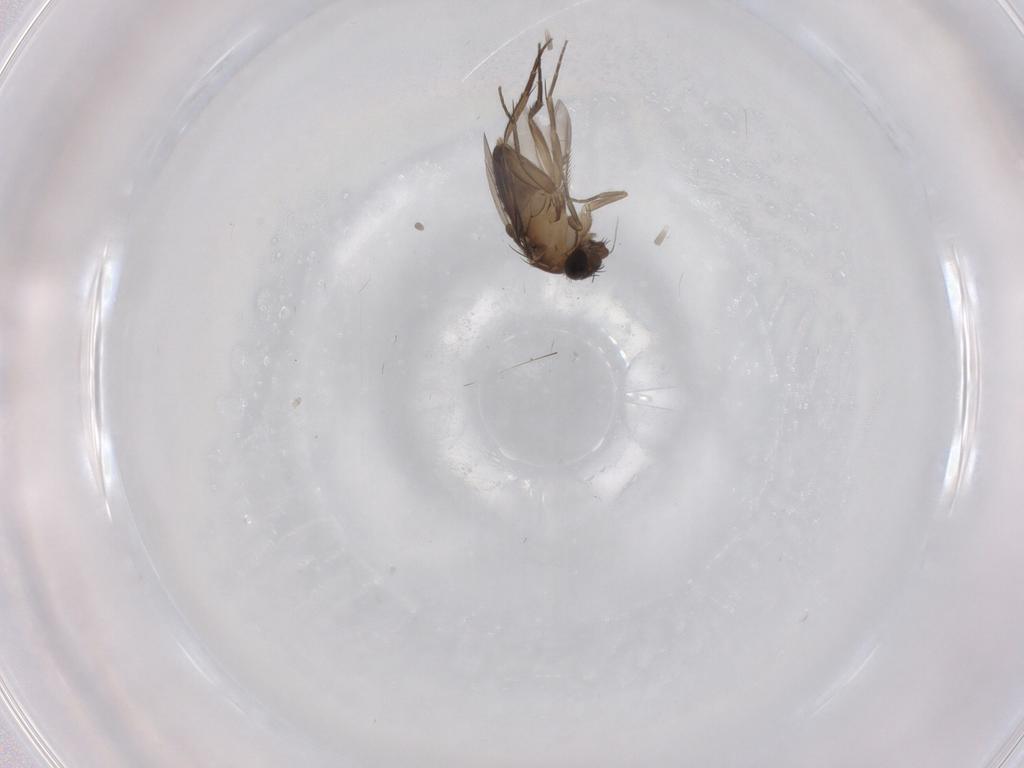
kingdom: Animalia
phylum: Arthropoda
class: Insecta
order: Diptera
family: Phoridae
